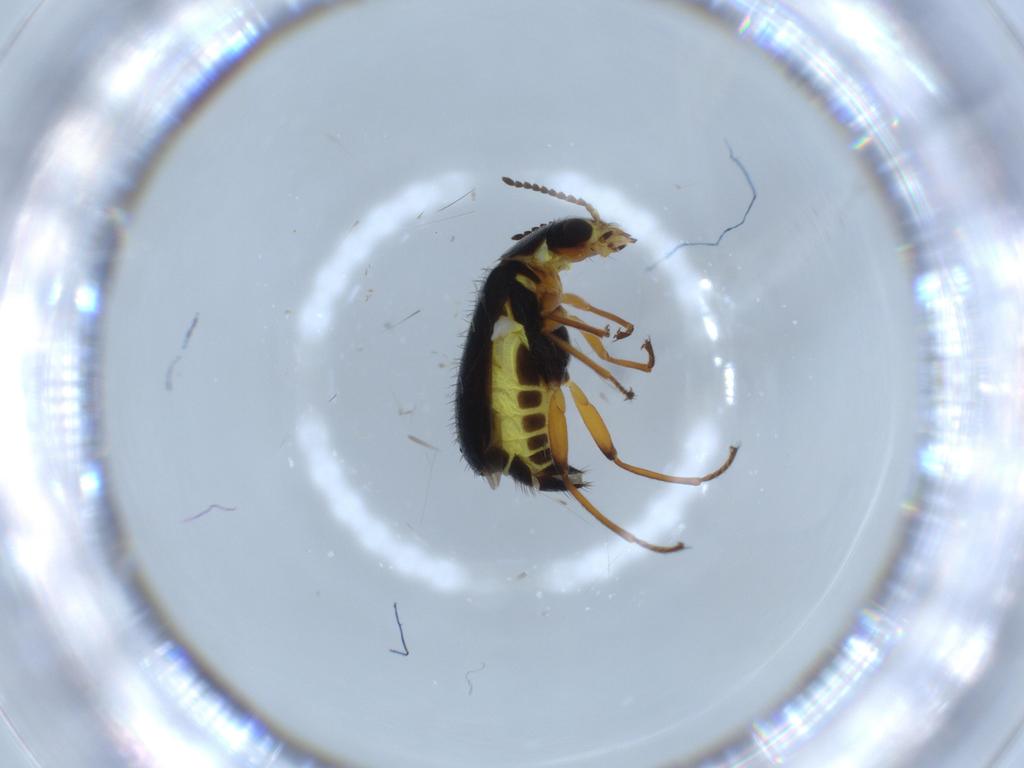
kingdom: Animalia
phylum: Arthropoda
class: Insecta
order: Coleoptera
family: Melyridae
